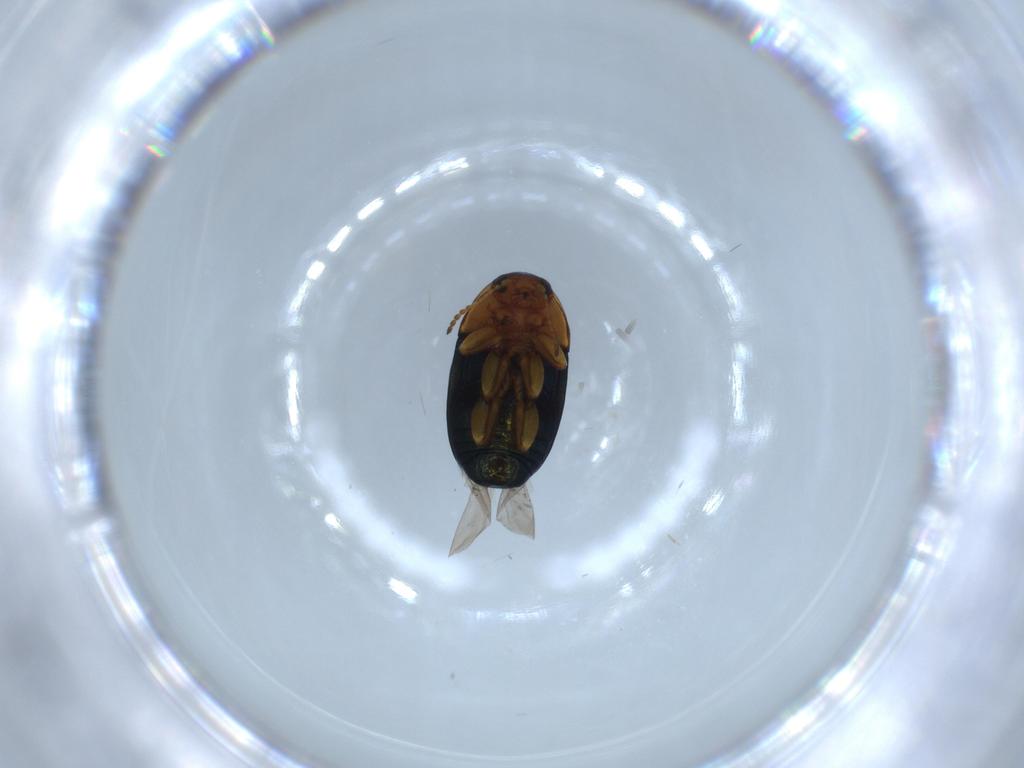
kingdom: Animalia
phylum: Arthropoda
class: Insecta
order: Coleoptera
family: Chrysomelidae
